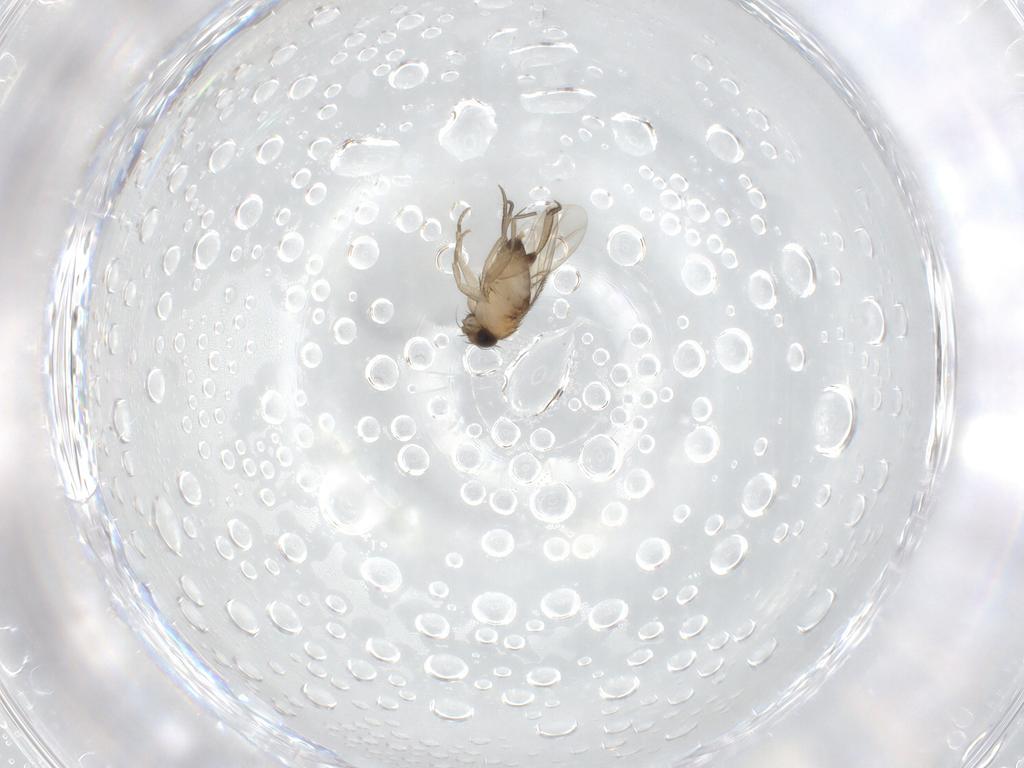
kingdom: Animalia
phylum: Arthropoda
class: Insecta
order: Diptera
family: Phoridae
